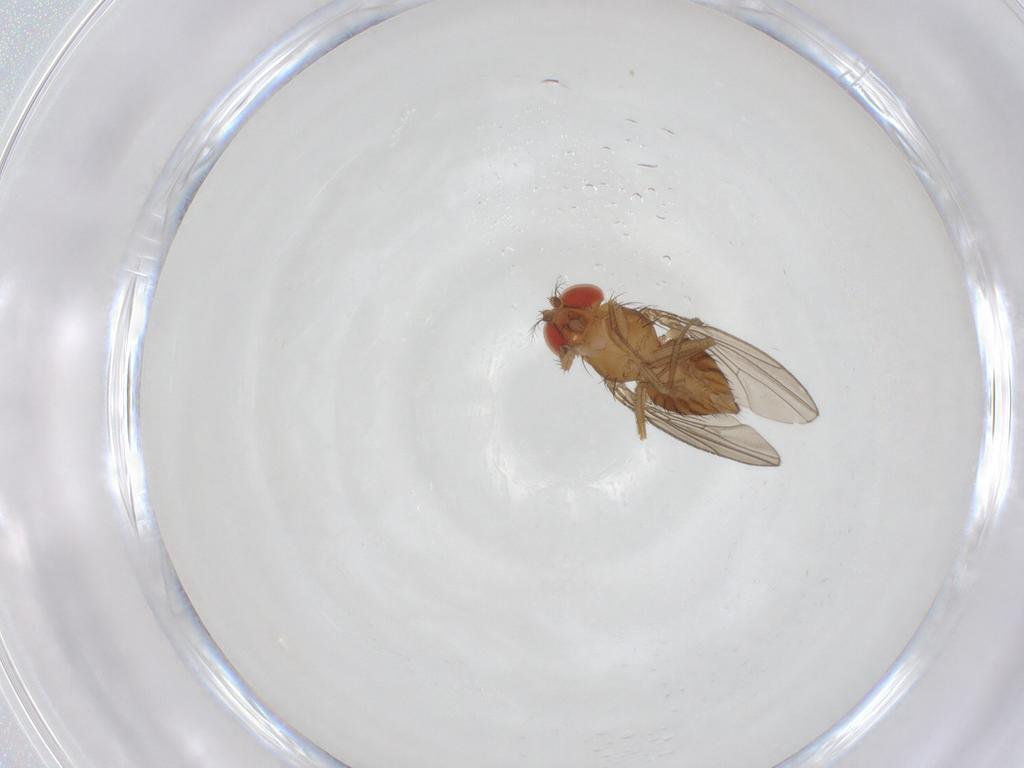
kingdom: Animalia
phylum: Arthropoda
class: Insecta
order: Diptera
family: Drosophilidae
